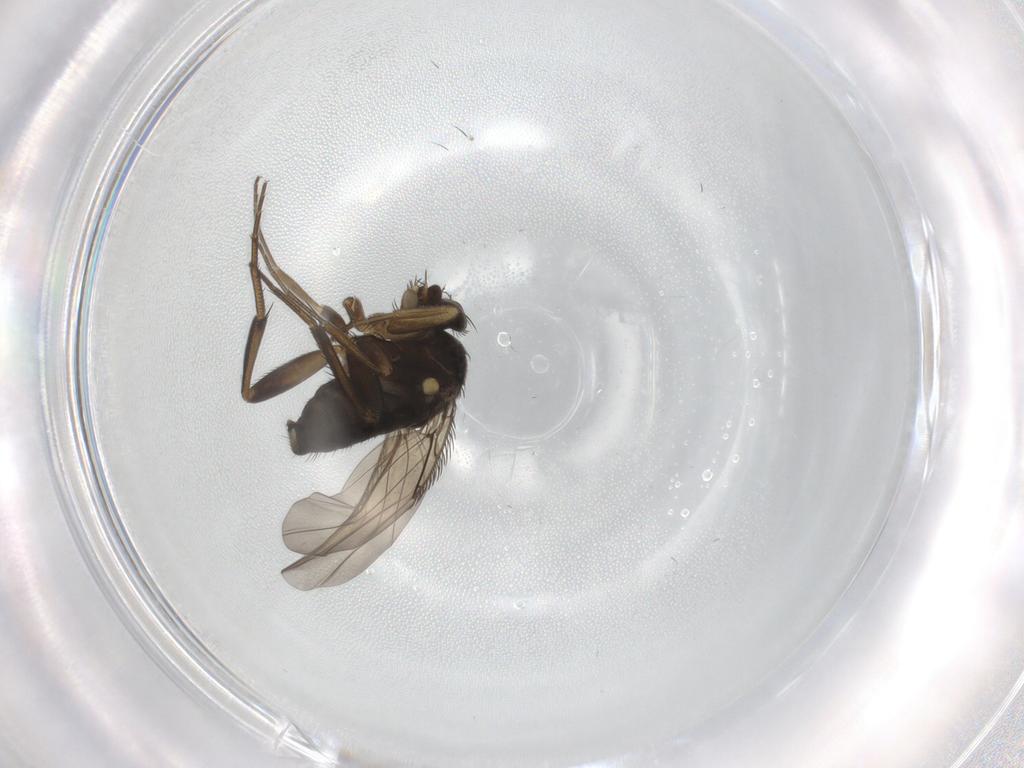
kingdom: Animalia
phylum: Arthropoda
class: Insecta
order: Diptera
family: Phoridae
